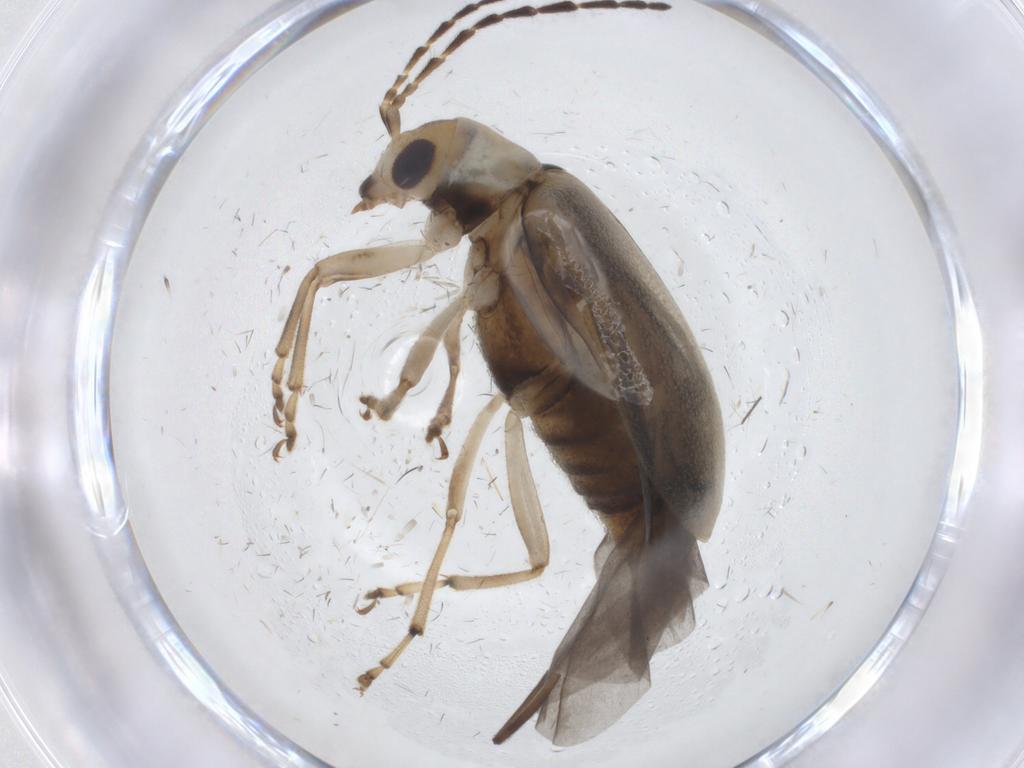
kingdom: Animalia
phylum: Arthropoda
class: Insecta
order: Coleoptera
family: Chrysomelidae
